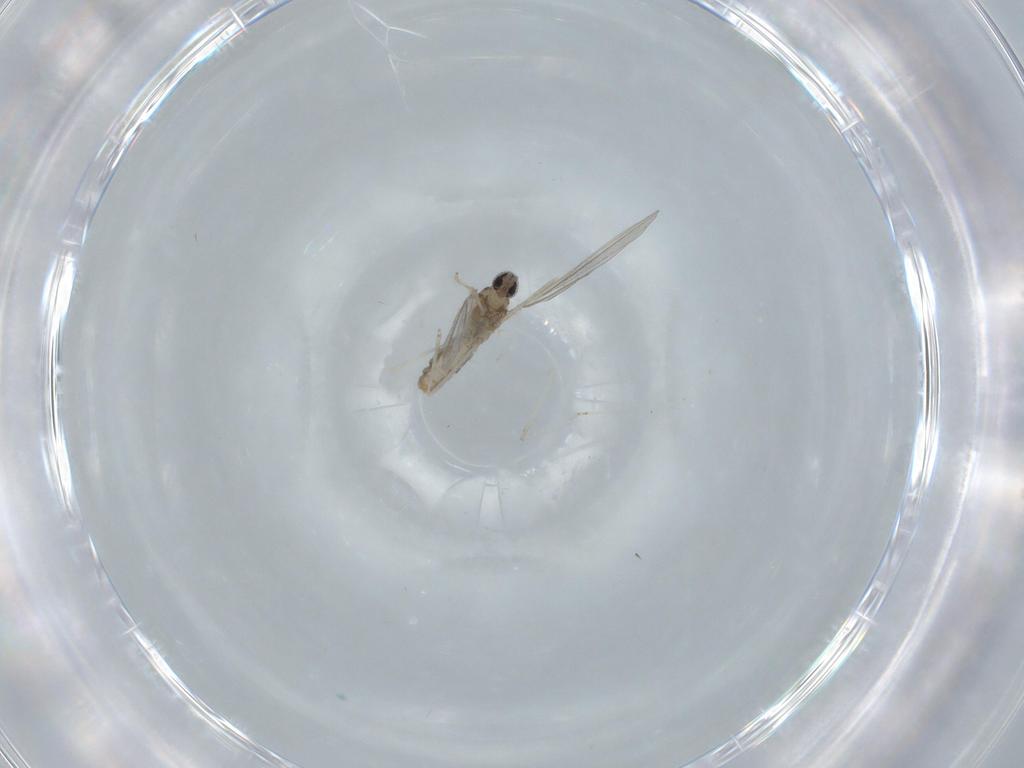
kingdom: Animalia
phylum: Arthropoda
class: Insecta
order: Diptera
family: Cecidomyiidae
